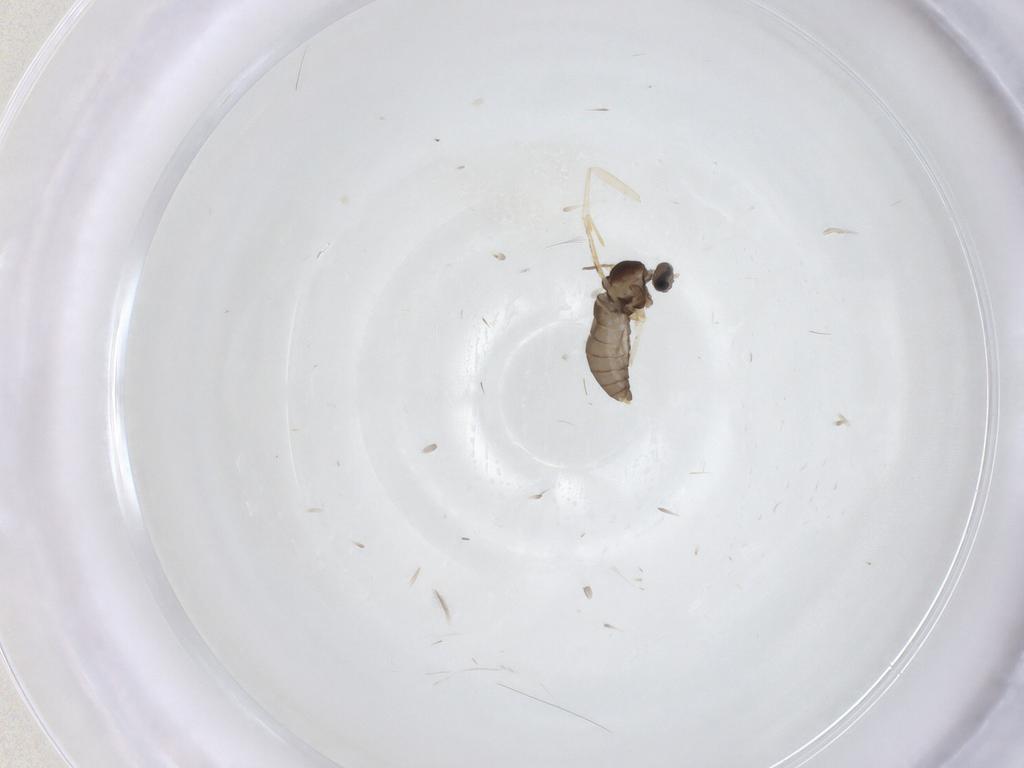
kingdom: Animalia
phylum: Arthropoda
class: Insecta
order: Diptera
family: Cecidomyiidae
